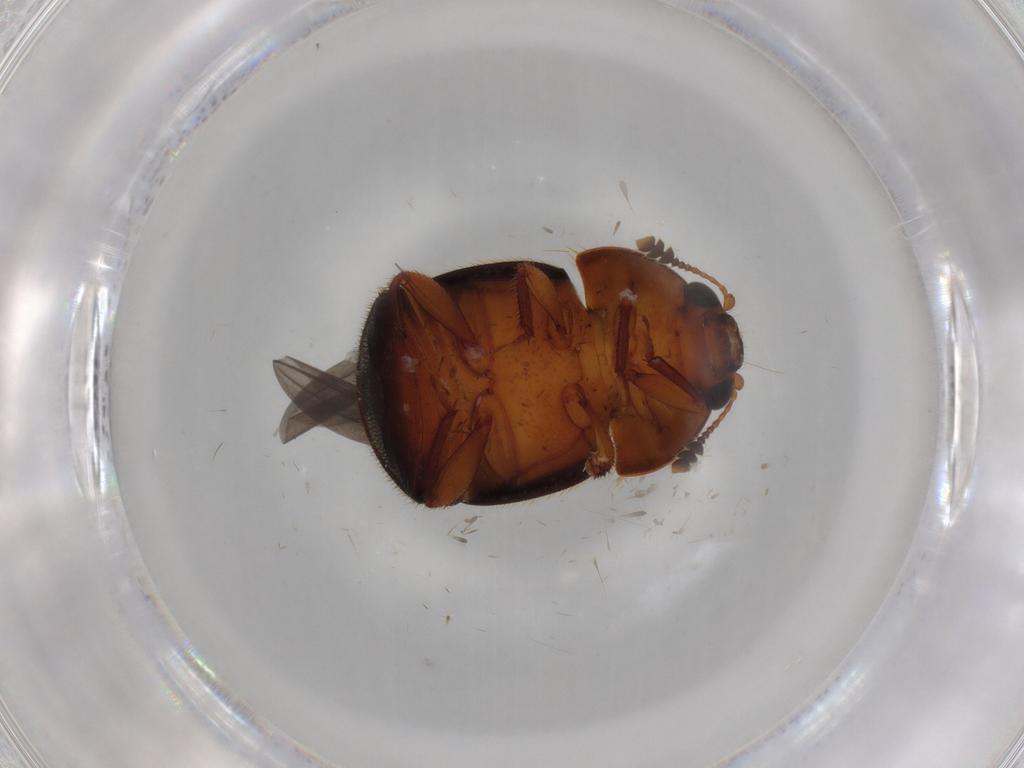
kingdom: Animalia
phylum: Arthropoda
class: Insecta
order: Coleoptera
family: Nitidulidae
